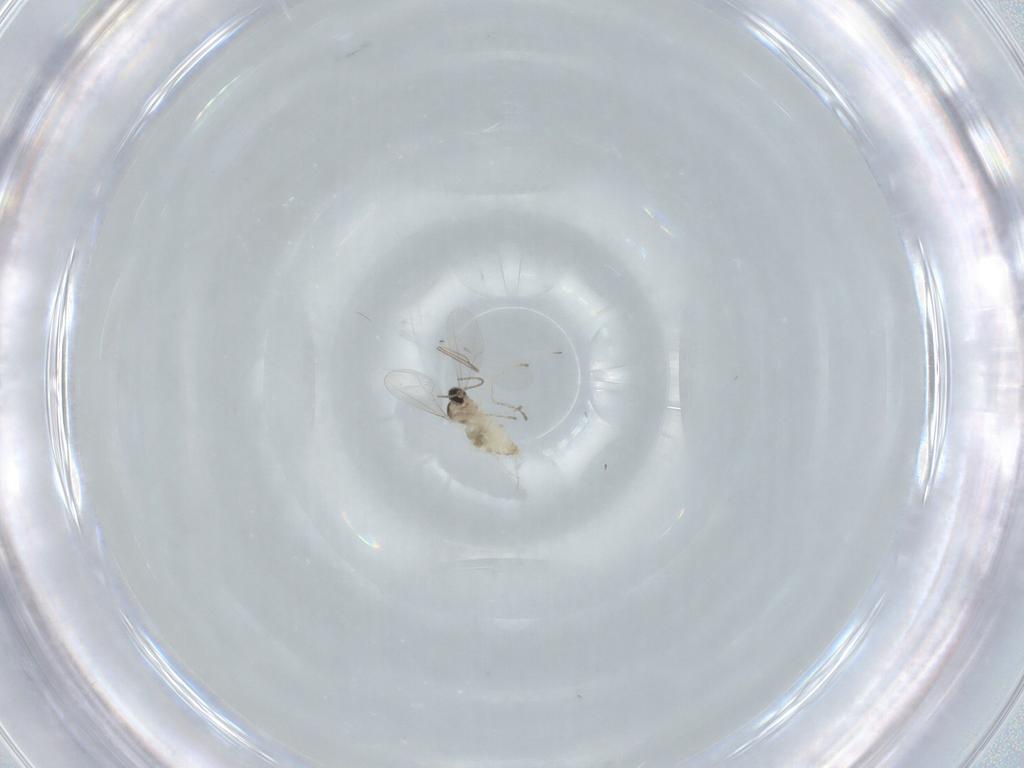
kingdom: Animalia
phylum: Arthropoda
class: Insecta
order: Diptera
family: Cecidomyiidae
